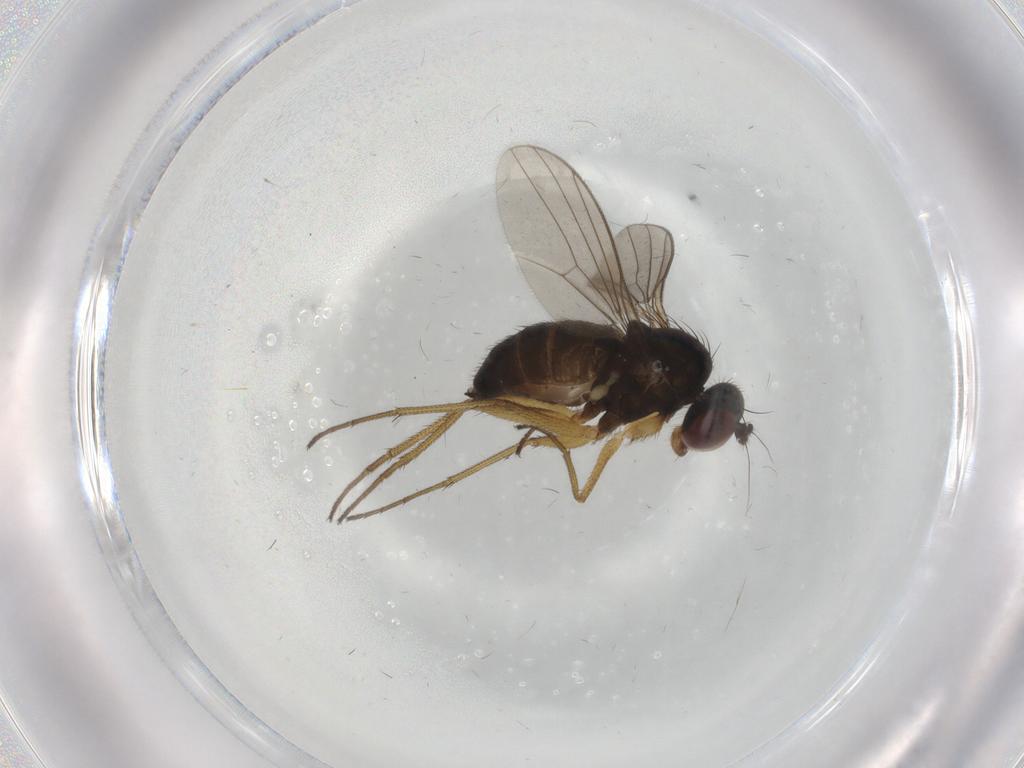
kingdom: Animalia
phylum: Arthropoda
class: Insecta
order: Diptera
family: Dolichopodidae
